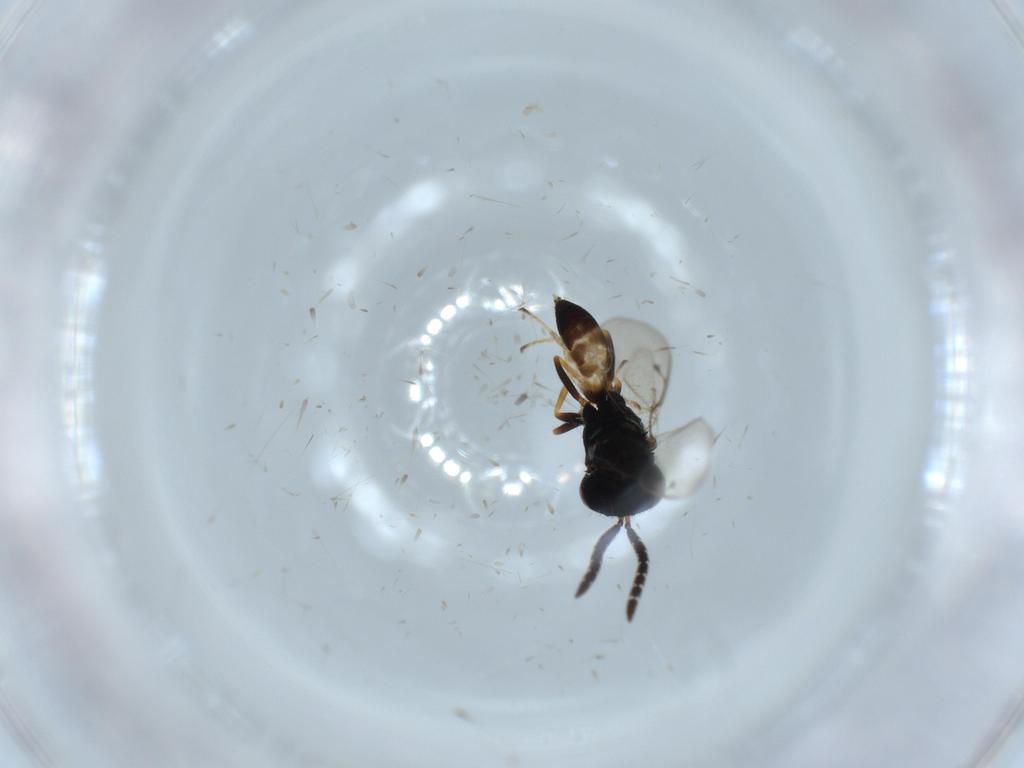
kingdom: Animalia
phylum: Arthropoda
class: Insecta
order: Hymenoptera
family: Agaonidae
